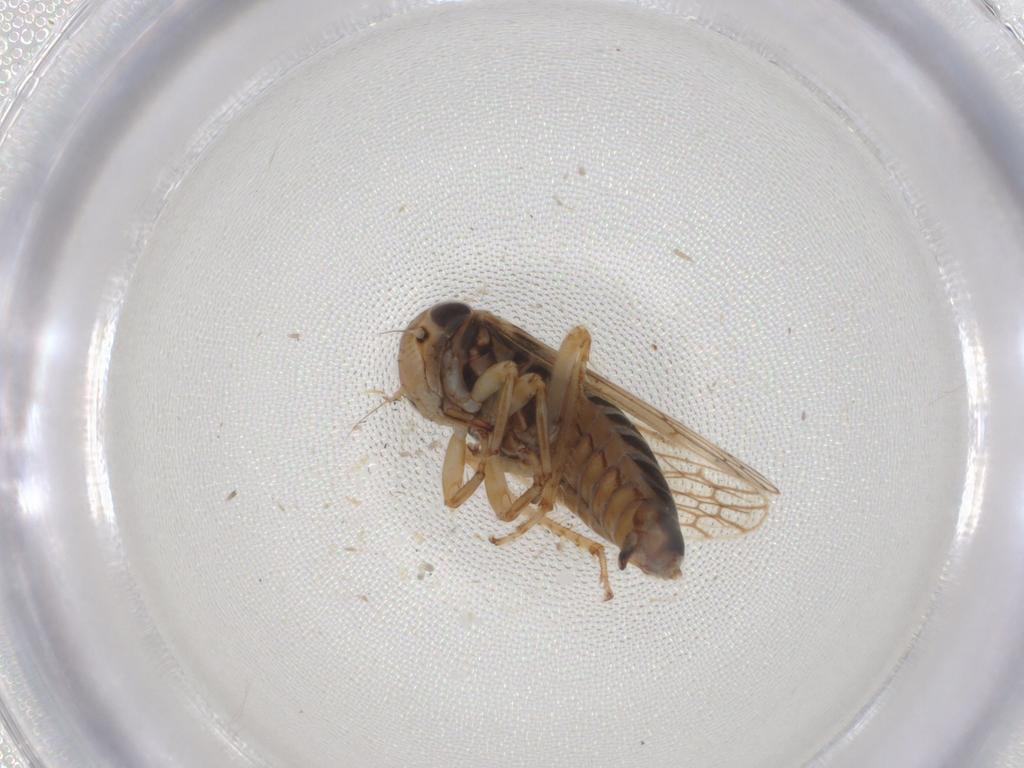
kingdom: Animalia
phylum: Arthropoda
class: Insecta
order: Hemiptera
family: Cicadellidae
